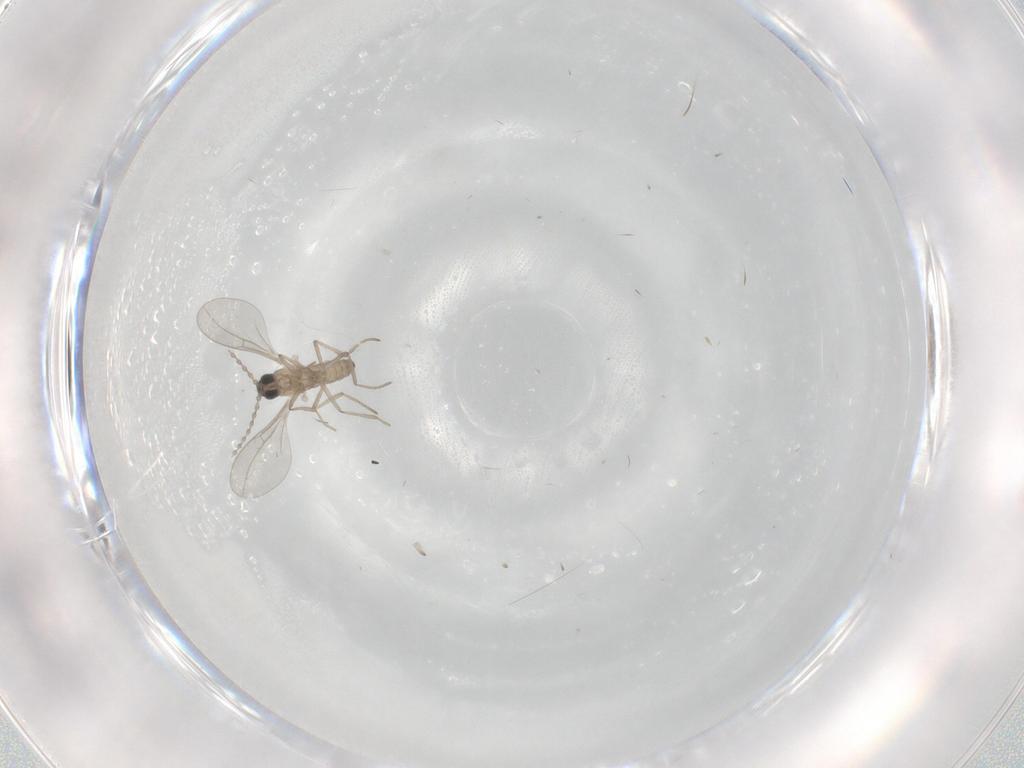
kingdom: Animalia
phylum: Arthropoda
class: Insecta
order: Diptera
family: Cecidomyiidae
